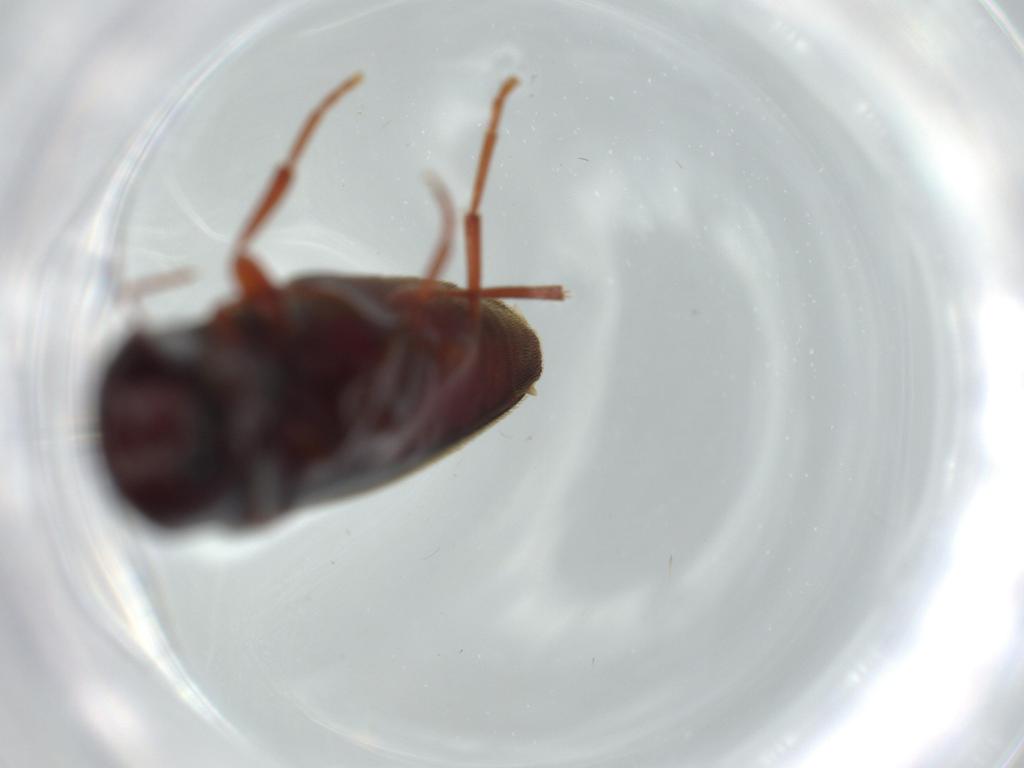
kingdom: Animalia
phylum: Arthropoda
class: Insecta
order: Coleoptera
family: Eucnemidae
